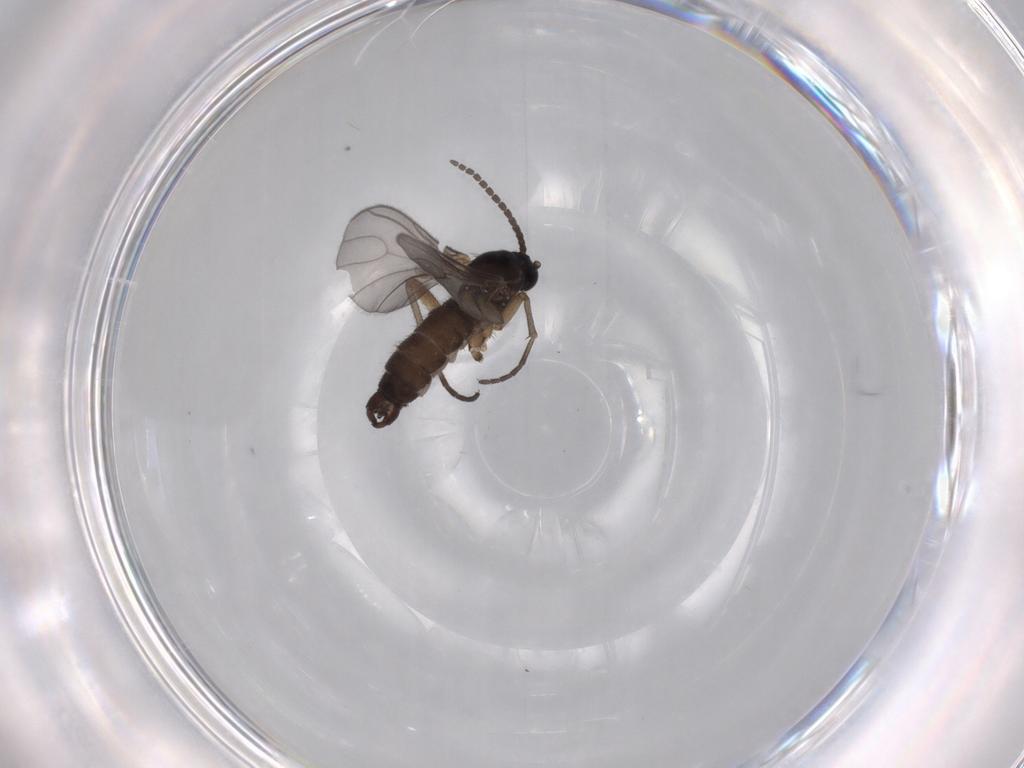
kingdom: Animalia
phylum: Arthropoda
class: Insecta
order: Diptera
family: Sciaridae
